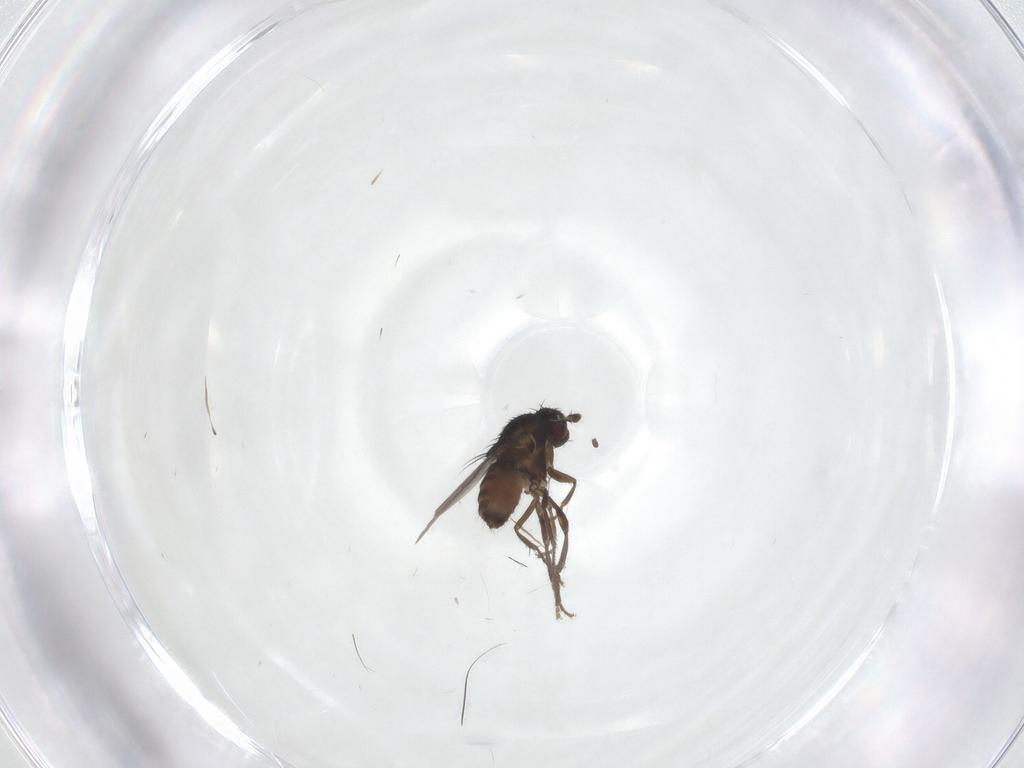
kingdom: Animalia
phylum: Arthropoda
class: Insecta
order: Diptera
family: Sphaeroceridae
